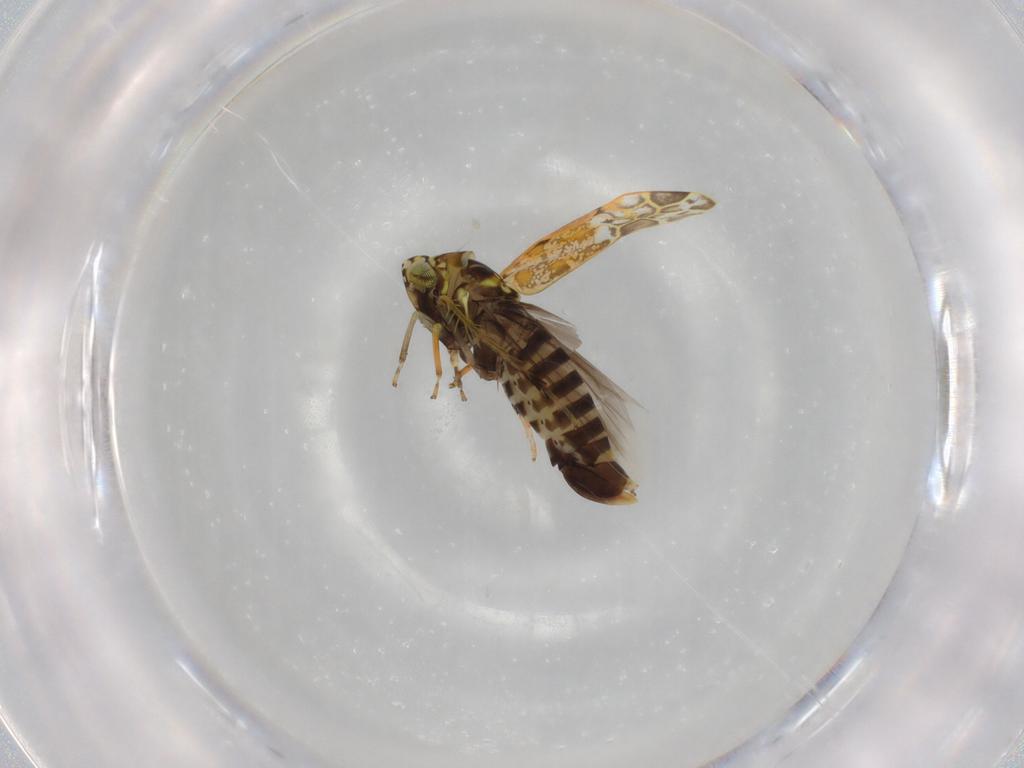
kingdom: Animalia
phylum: Arthropoda
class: Insecta
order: Hemiptera
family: Cicadellidae
